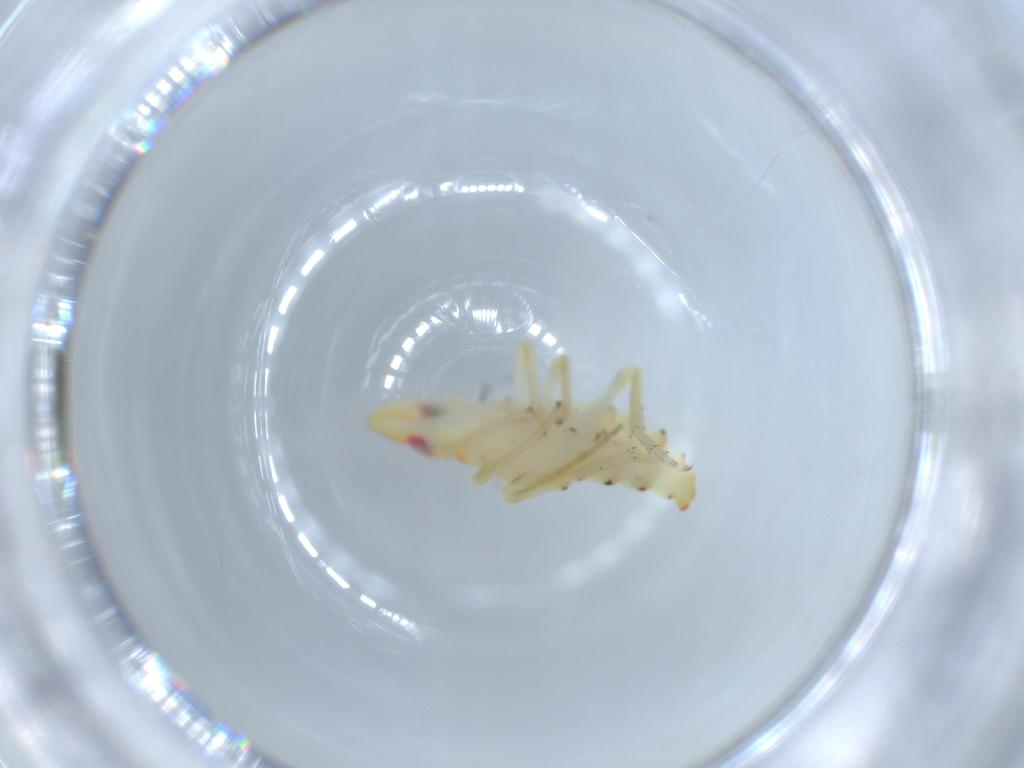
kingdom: Animalia
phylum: Arthropoda
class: Insecta
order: Hemiptera
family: Tropiduchidae
